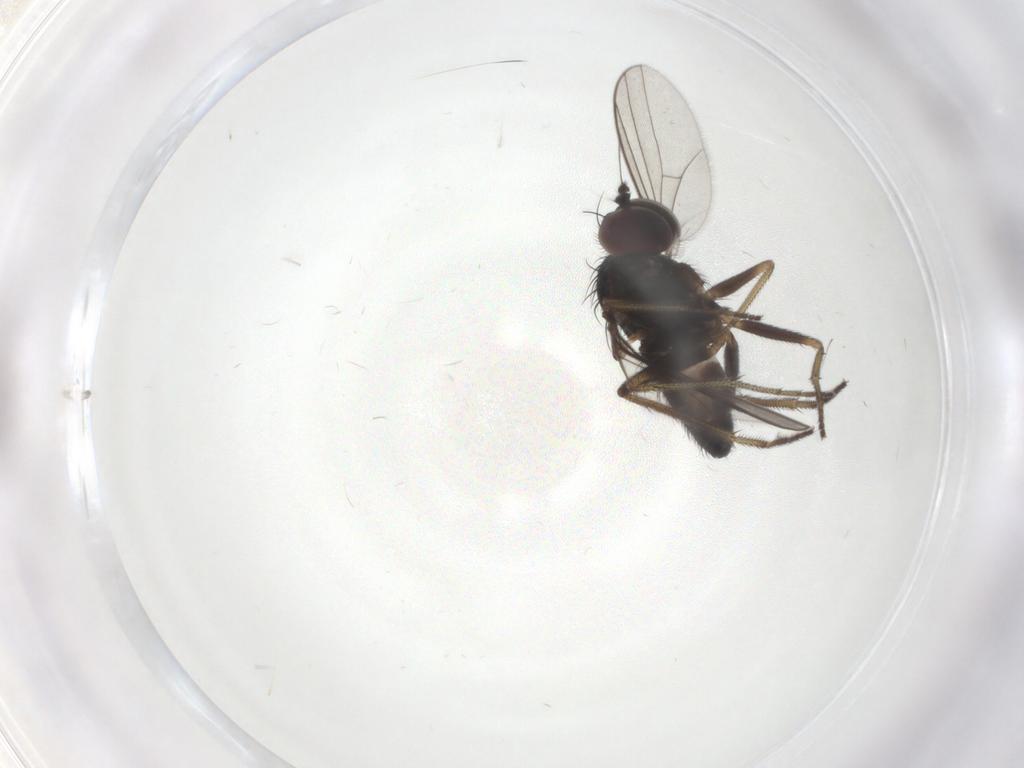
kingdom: Animalia
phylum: Arthropoda
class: Insecta
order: Diptera
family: Dolichopodidae
